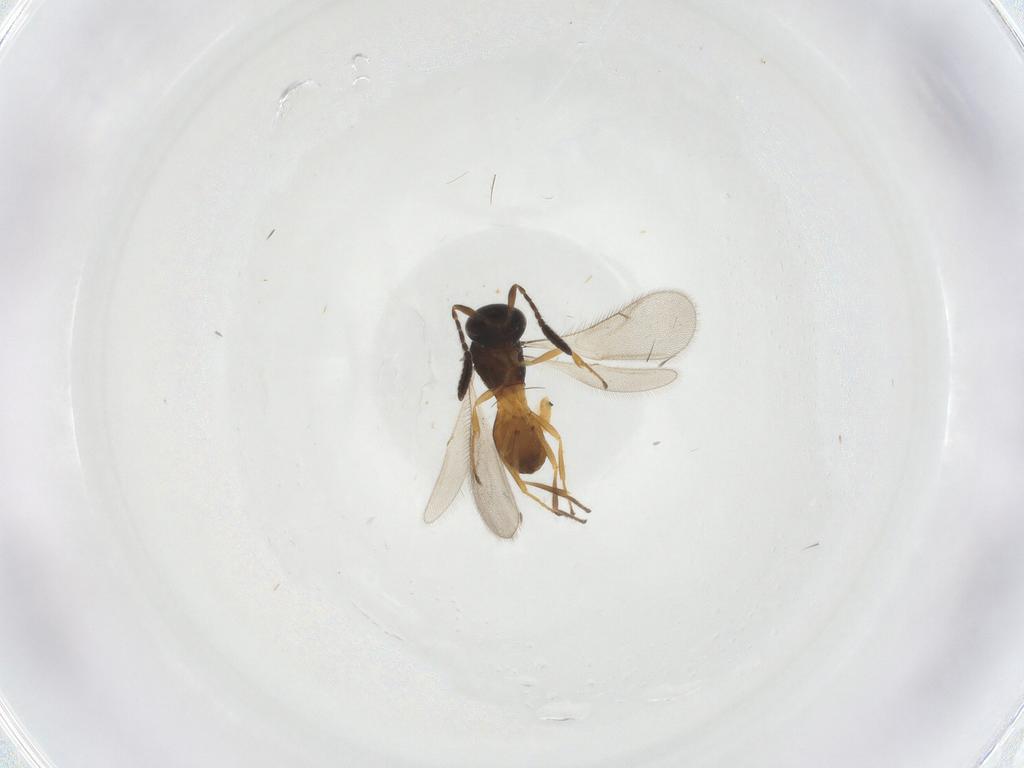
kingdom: Animalia
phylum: Arthropoda
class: Insecta
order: Hymenoptera
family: Scelionidae
